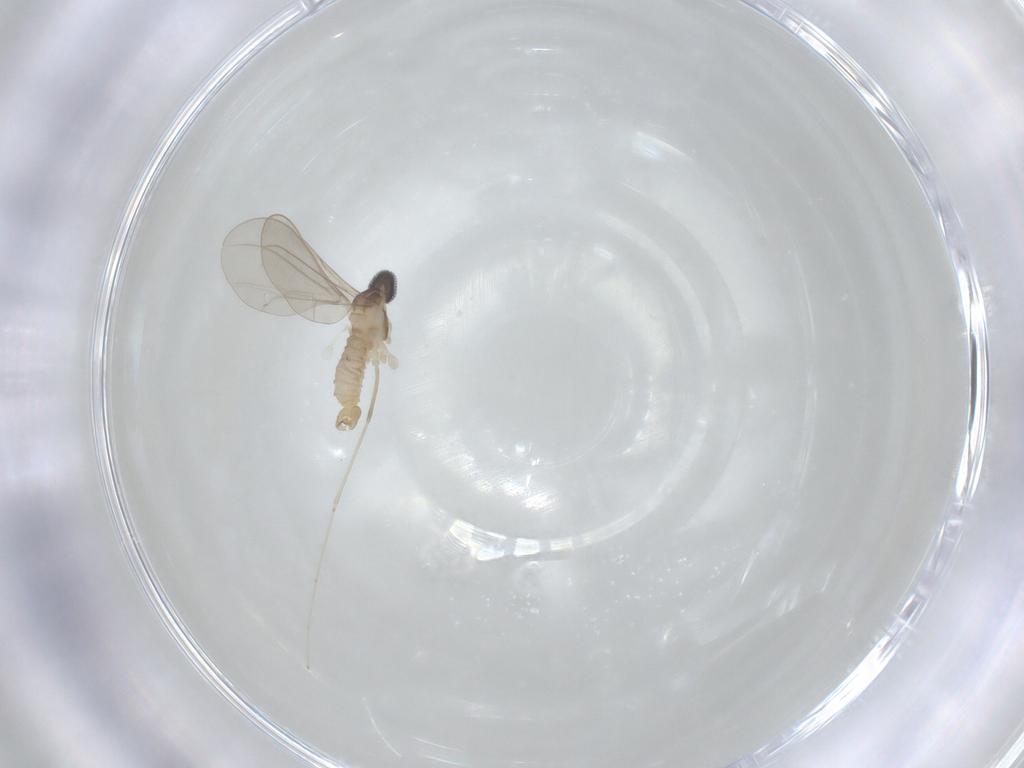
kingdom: Animalia
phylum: Arthropoda
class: Insecta
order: Diptera
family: Cecidomyiidae
